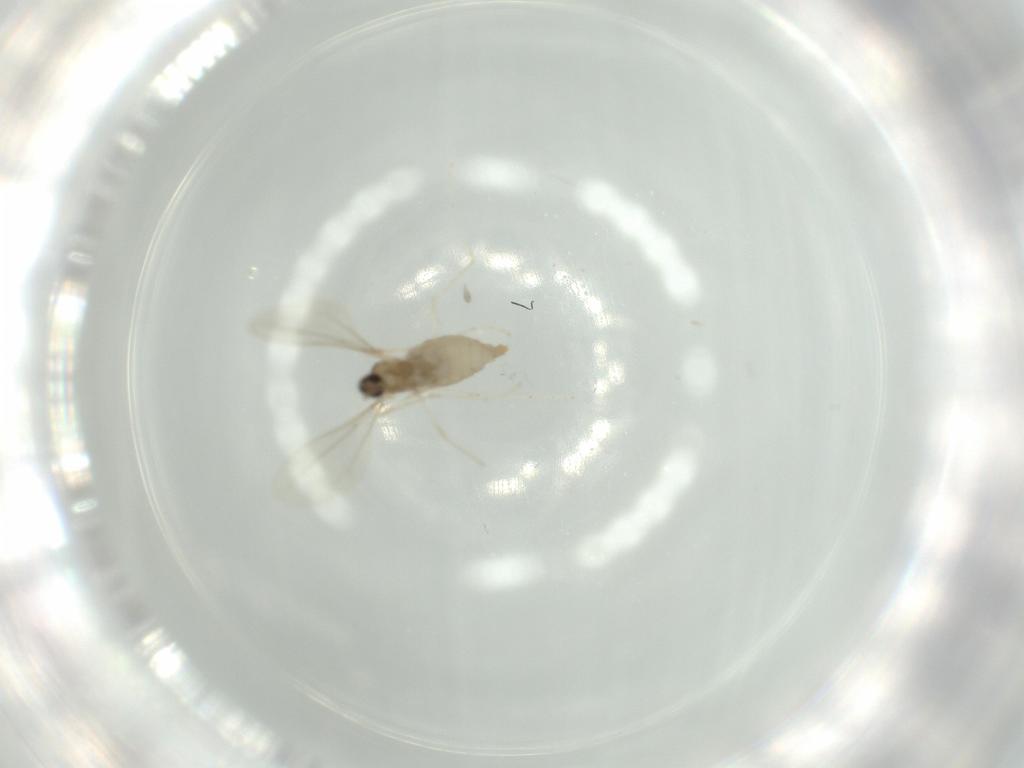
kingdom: Animalia
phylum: Arthropoda
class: Insecta
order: Diptera
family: Cecidomyiidae
